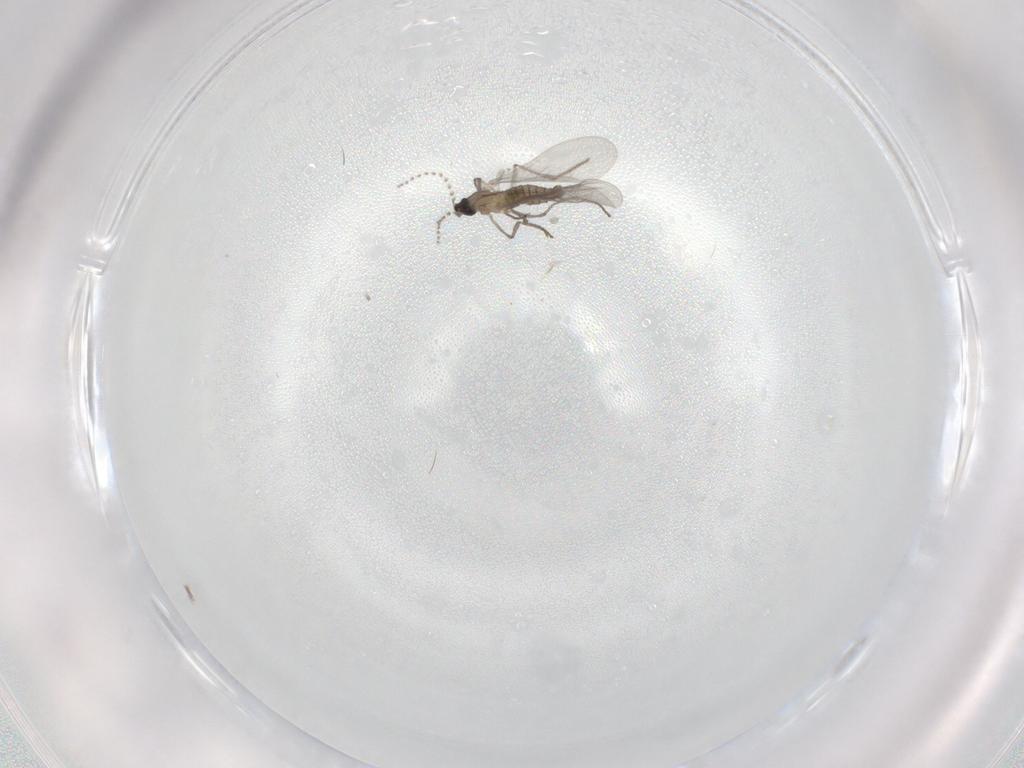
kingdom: Animalia
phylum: Arthropoda
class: Insecta
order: Diptera
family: Cecidomyiidae
